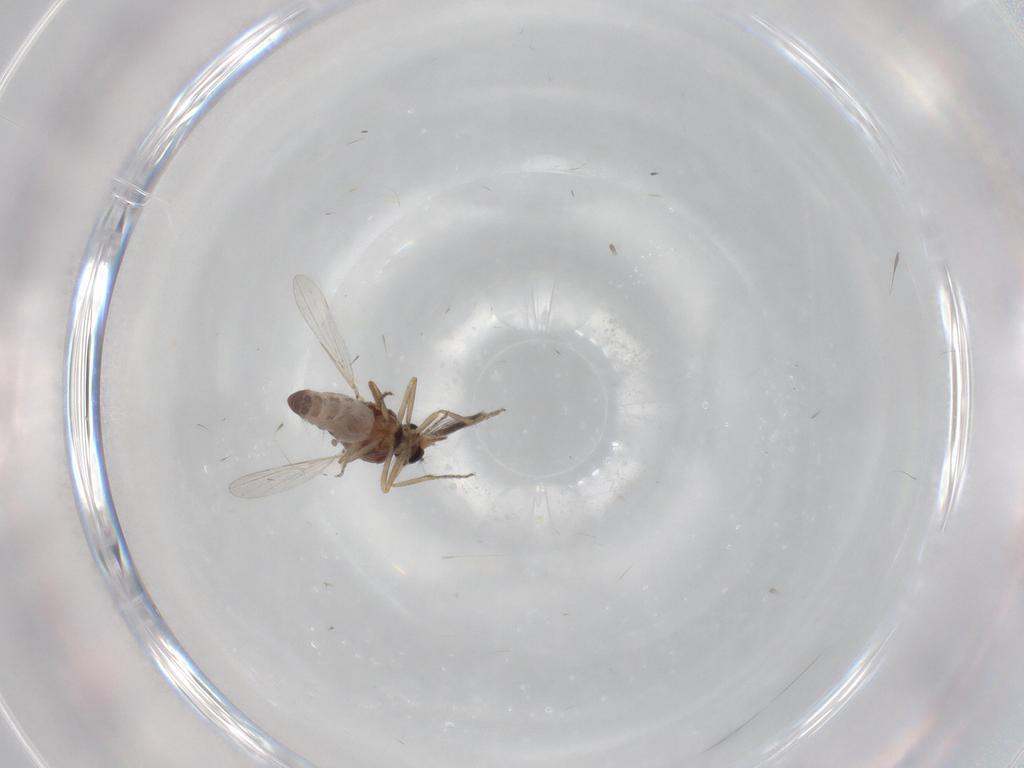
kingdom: Animalia
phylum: Arthropoda
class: Insecta
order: Diptera
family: Ceratopogonidae
